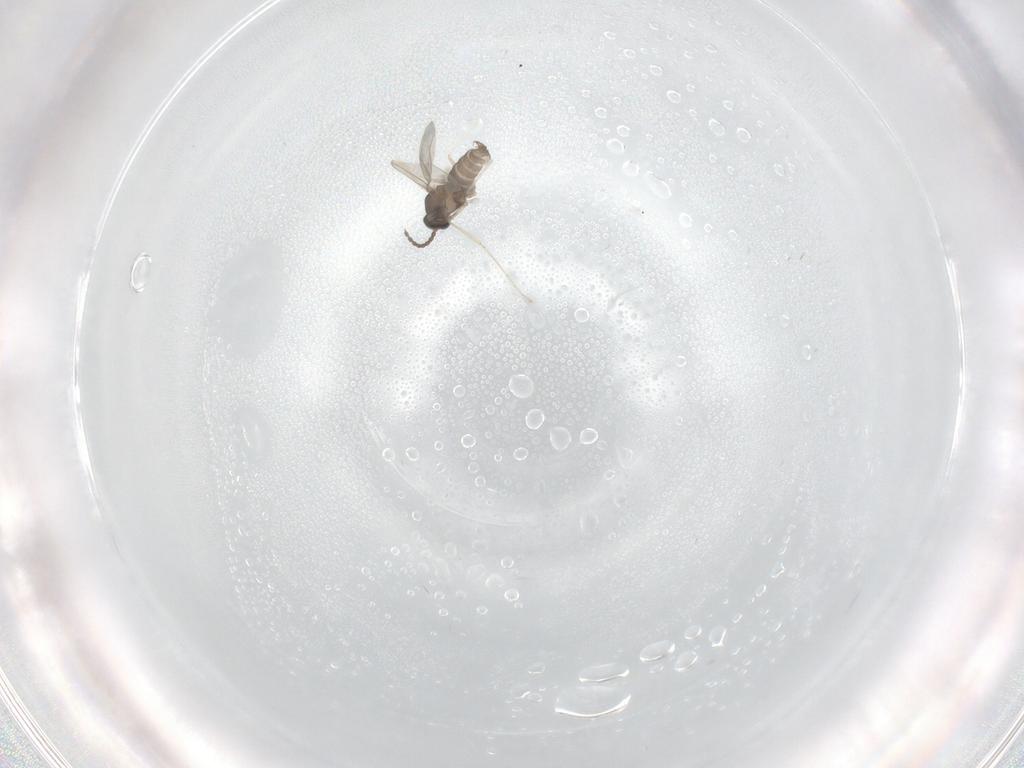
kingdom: Animalia
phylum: Arthropoda
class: Insecta
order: Diptera
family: Cecidomyiidae
